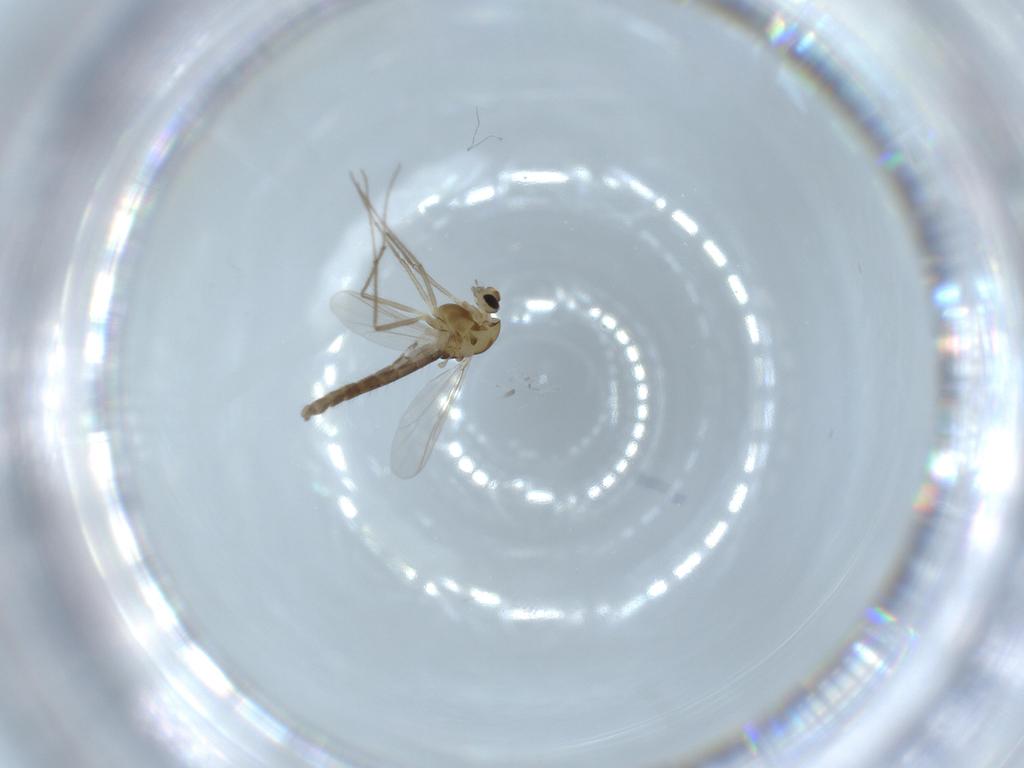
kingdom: Animalia
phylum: Arthropoda
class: Insecta
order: Diptera
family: Chironomidae
